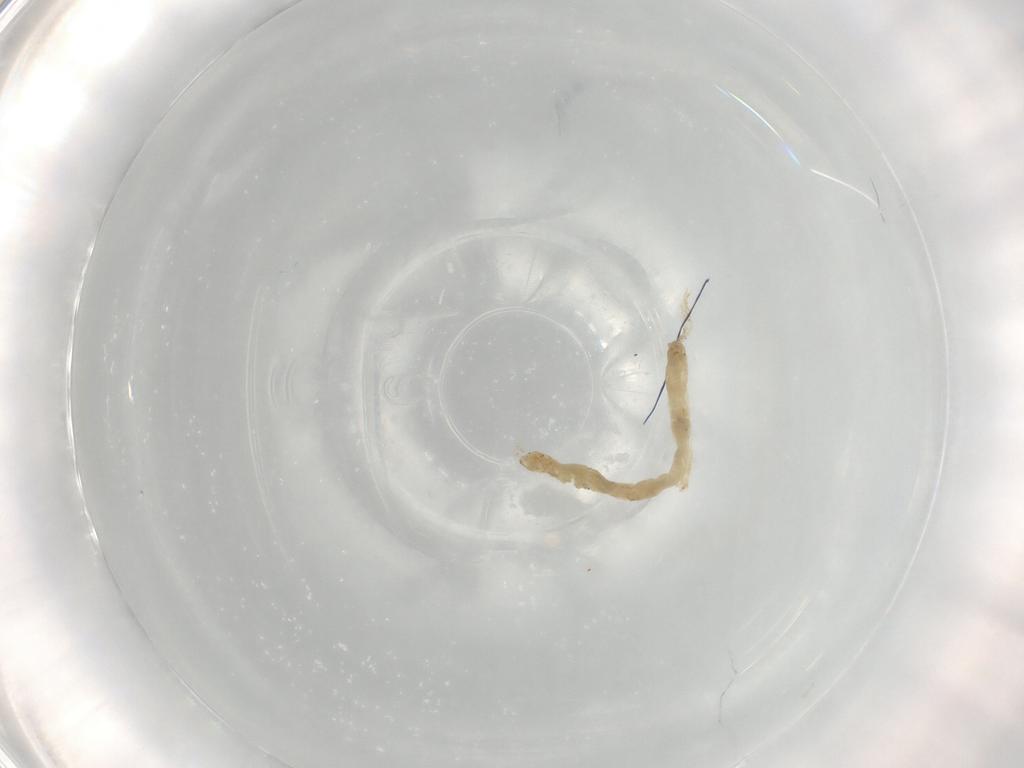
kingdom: Animalia
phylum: Arthropoda
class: Insecta
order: Diptera
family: Chironomidae
